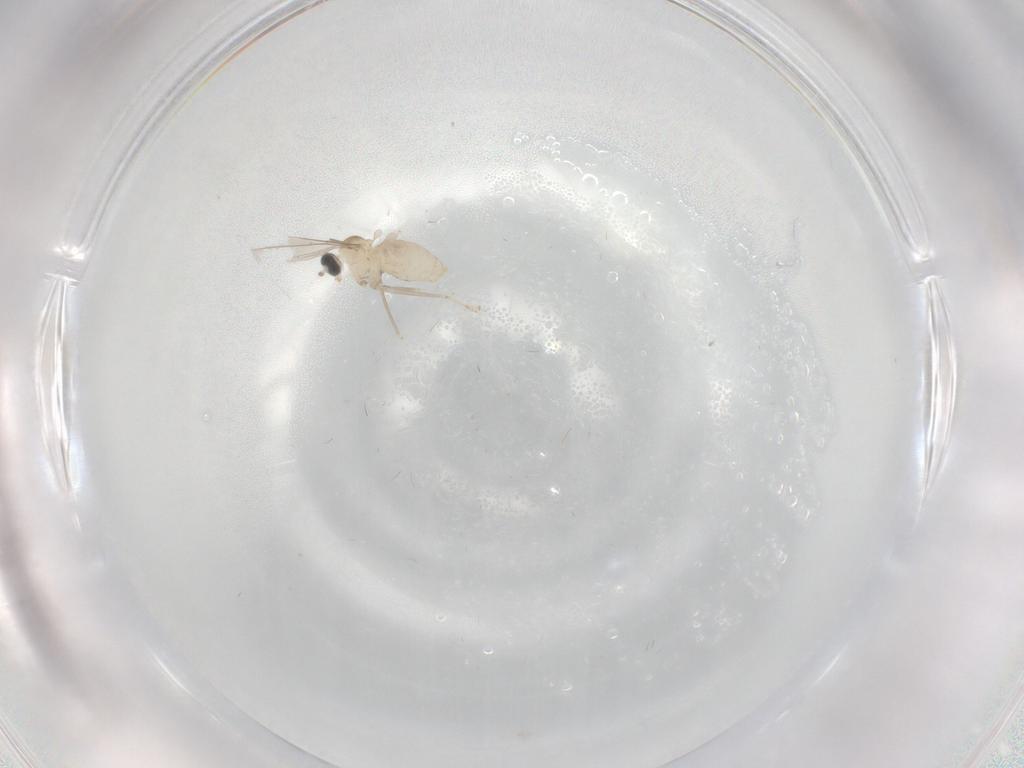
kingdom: Animalia
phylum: Arthropoda
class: Insecta
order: Diptera
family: Cecidomyiidae
